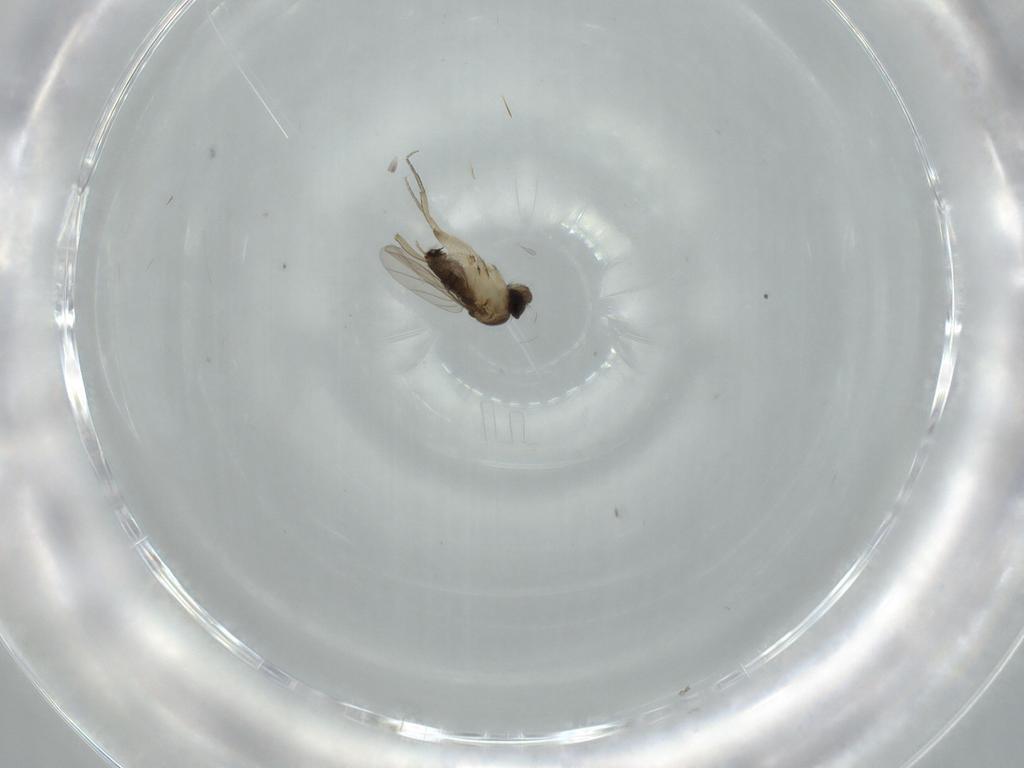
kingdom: Animalia
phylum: Arthropoda
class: Insecta
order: Diptera
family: Phoridae
